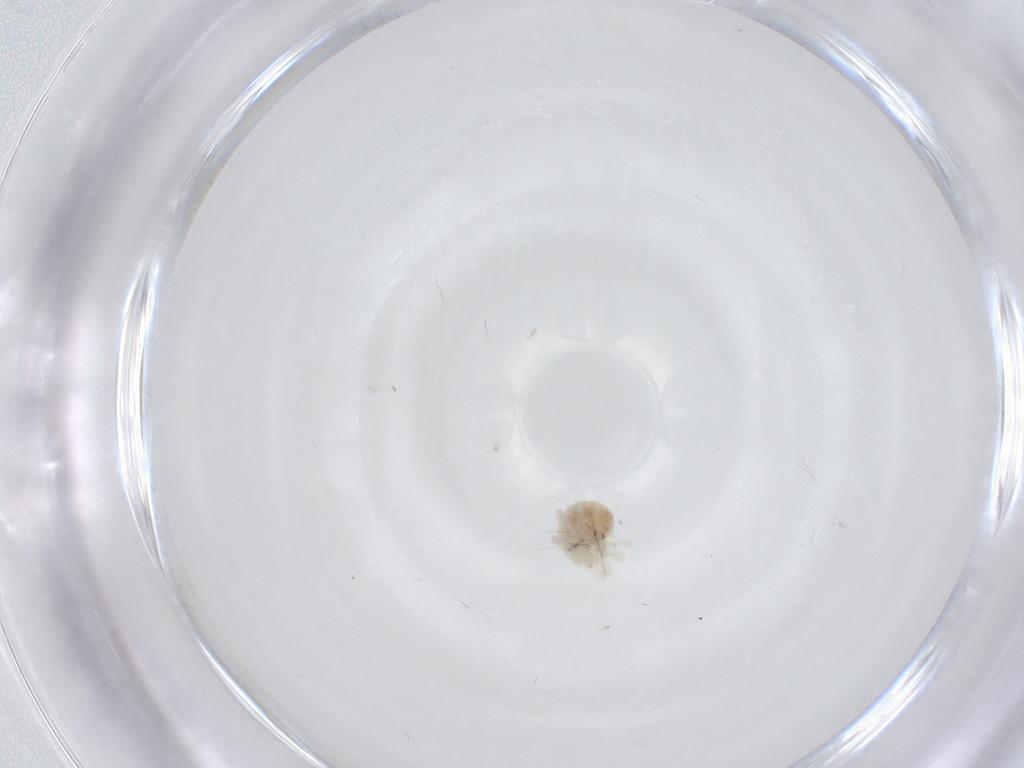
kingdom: Animalia
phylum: Arthropoda
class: Arachnida
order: Trombidiformes
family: Anystidae
